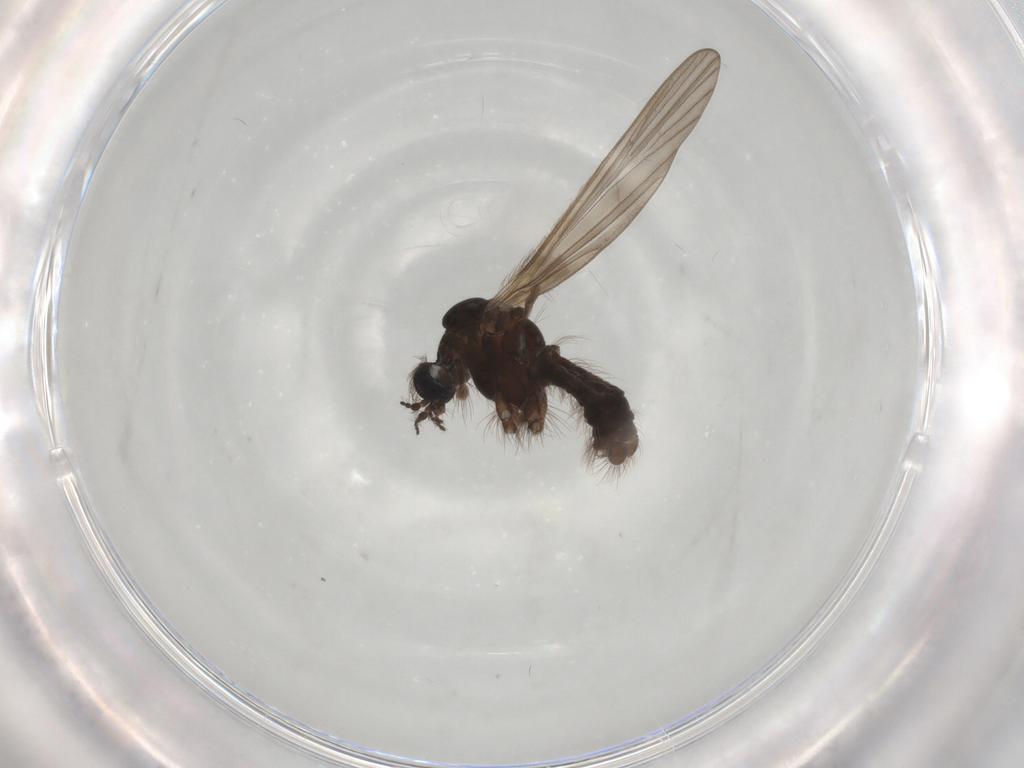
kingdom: Animalia
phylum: Arthropoda
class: Insecta
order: Diptera
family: Limoniidae
